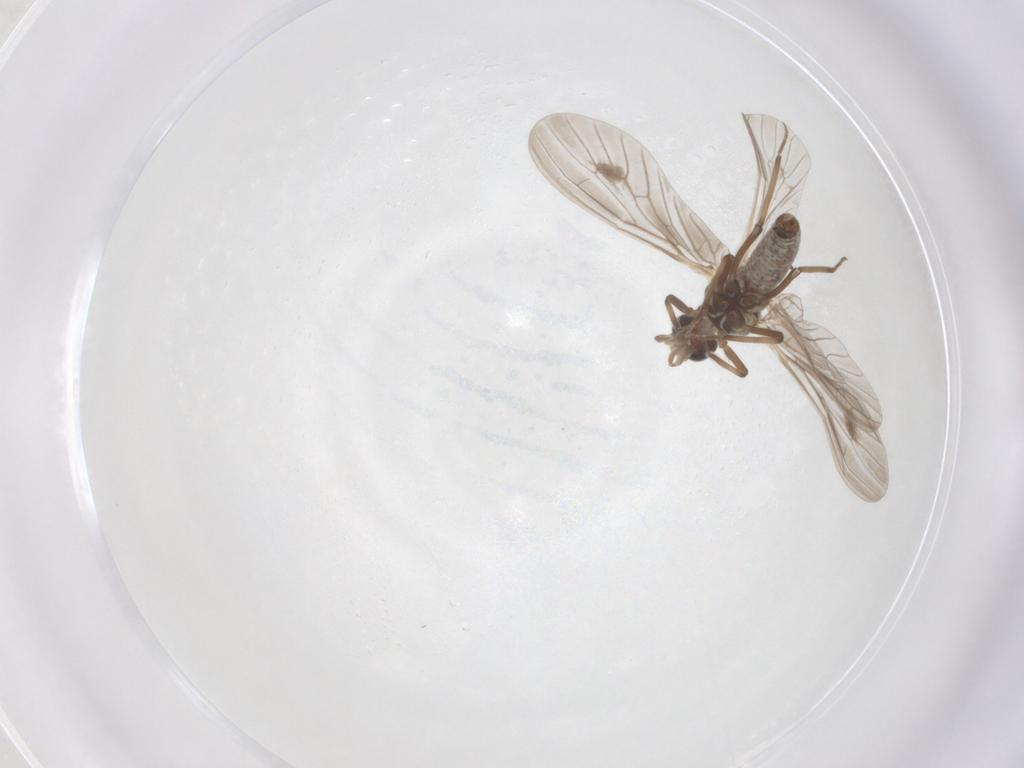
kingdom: Animalia
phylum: Arthropoda
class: Insecta
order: Neuroptera
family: Coniopterygidae
